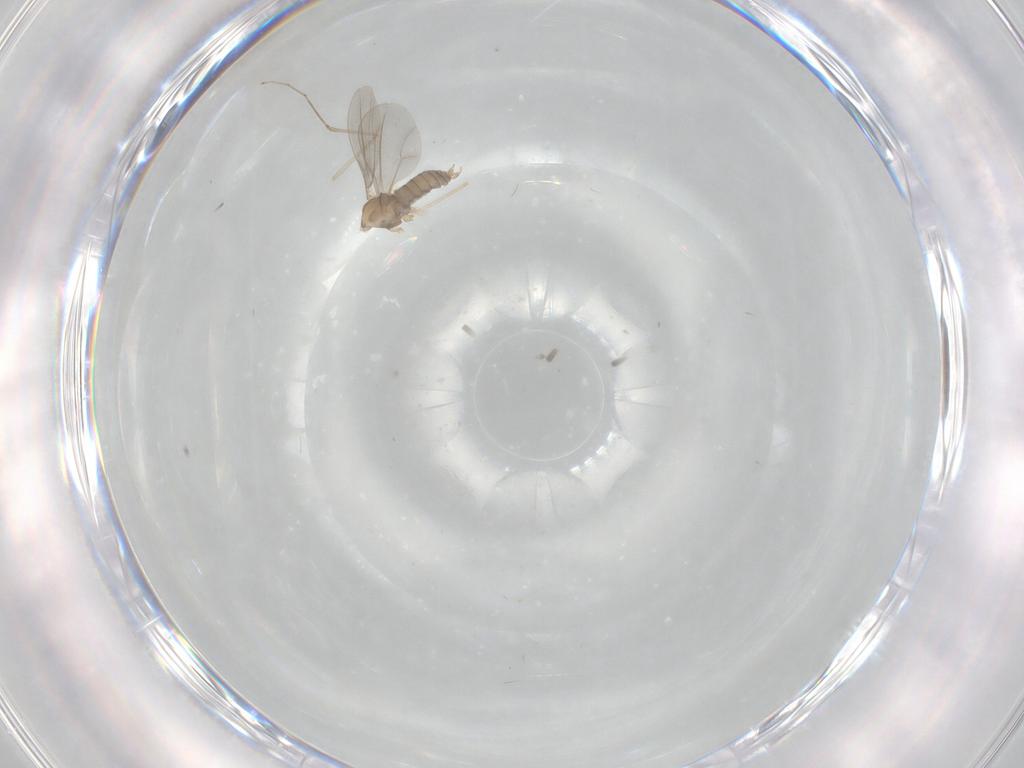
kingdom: Animalia
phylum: Arthropoda
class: Insecta
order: Diptera
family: Cecidomyiidae
